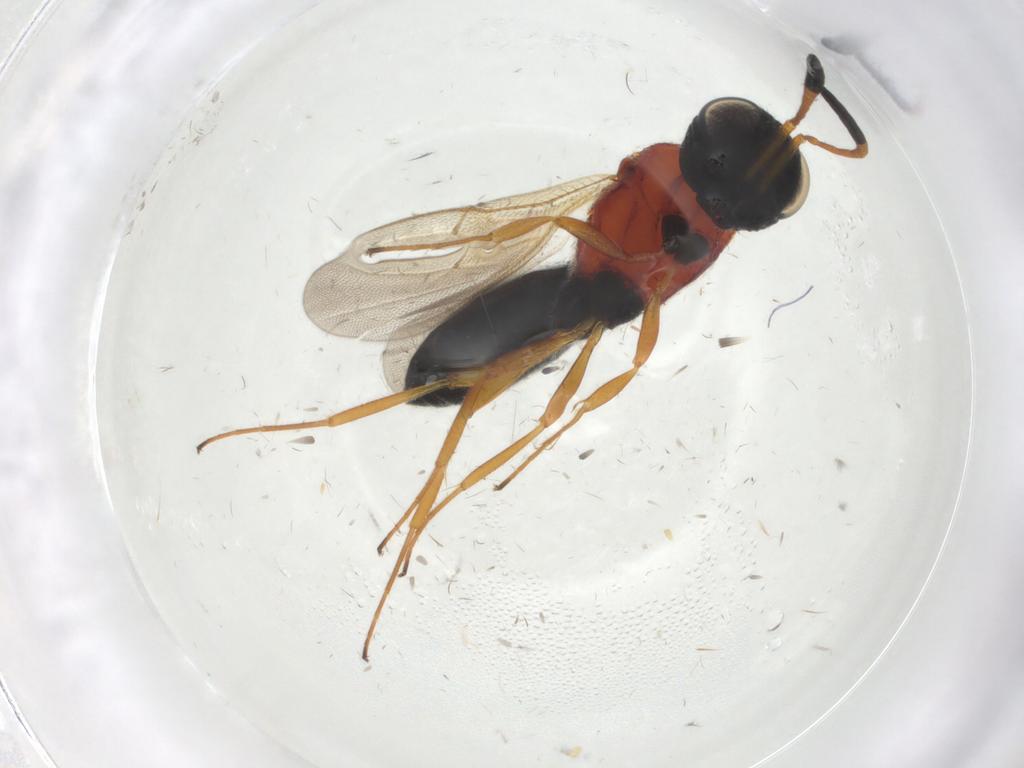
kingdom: Animalia
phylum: Arthropoda
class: Insecta
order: Hymenoptera
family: Scelionidae
